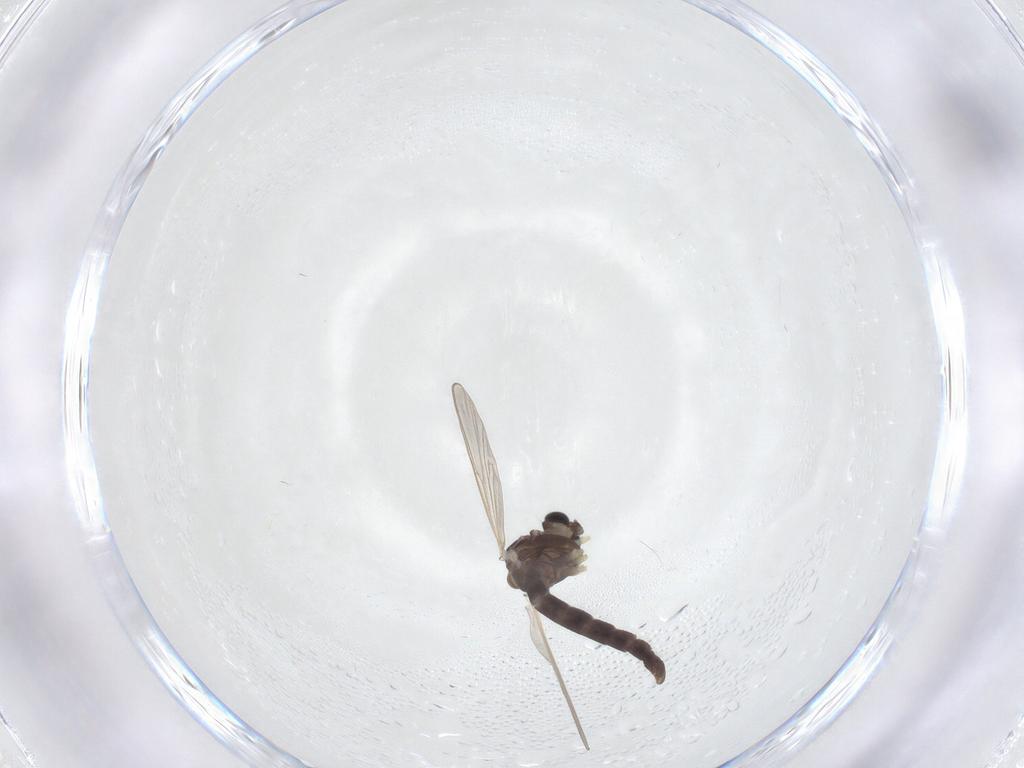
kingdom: Animalia
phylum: Arthropoda
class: Insecta
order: Diptera
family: Chironomidae
